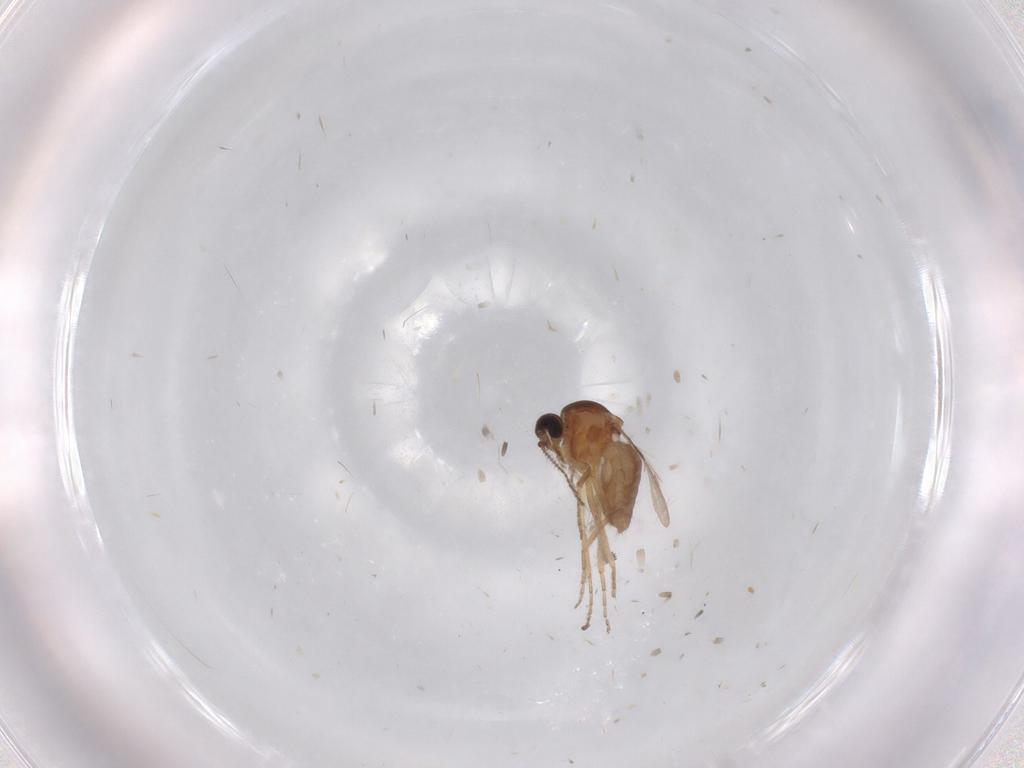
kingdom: Animalia
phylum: Arthropoda
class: Insecta
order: Diptera
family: Ceratopogonidae
